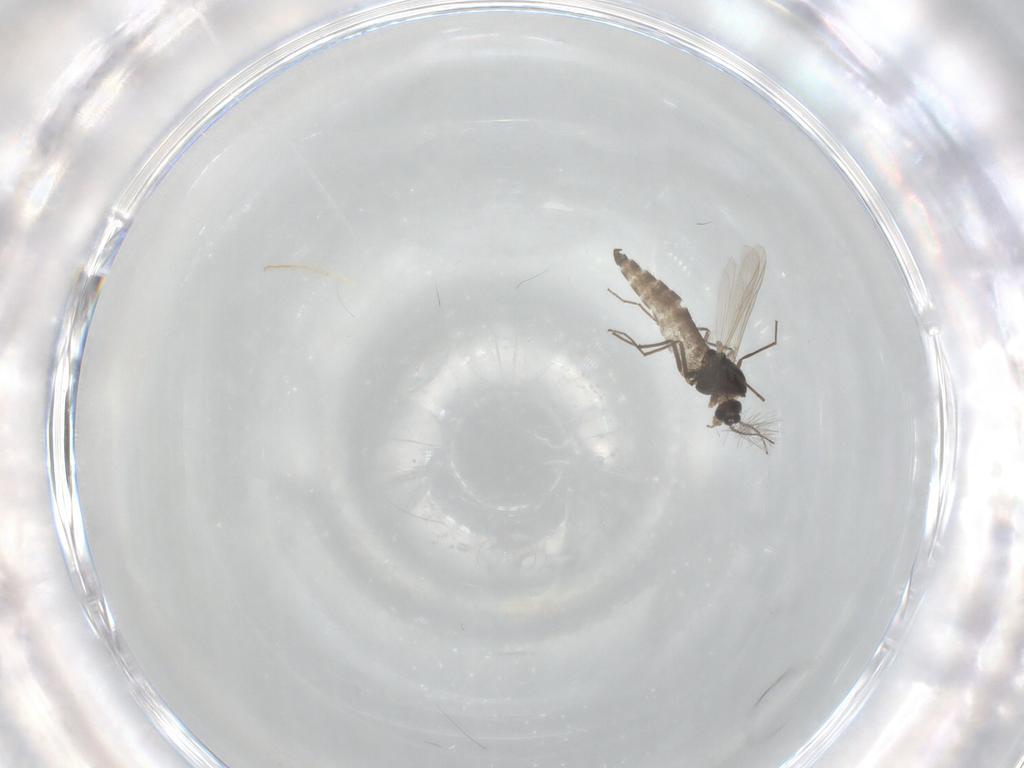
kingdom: Animalia
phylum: Arthropoda
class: Insecta
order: Diptera
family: Chironomidae
